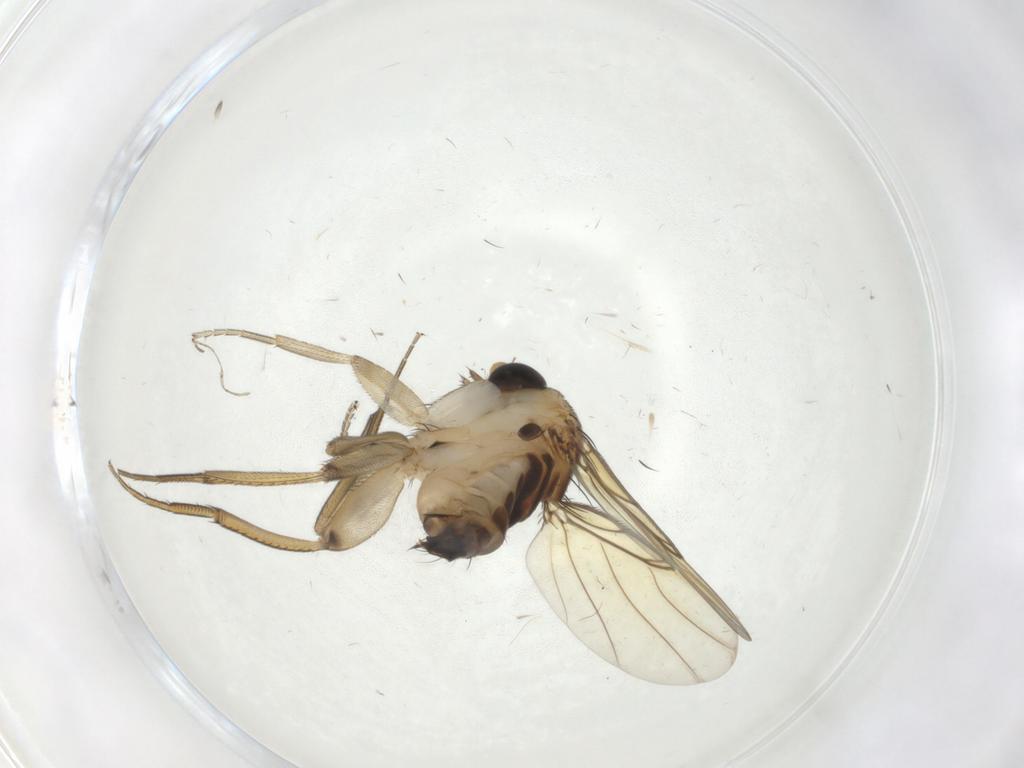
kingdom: Animalia
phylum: Arthropoda
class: Insecta
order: Diptera
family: Phoridae
